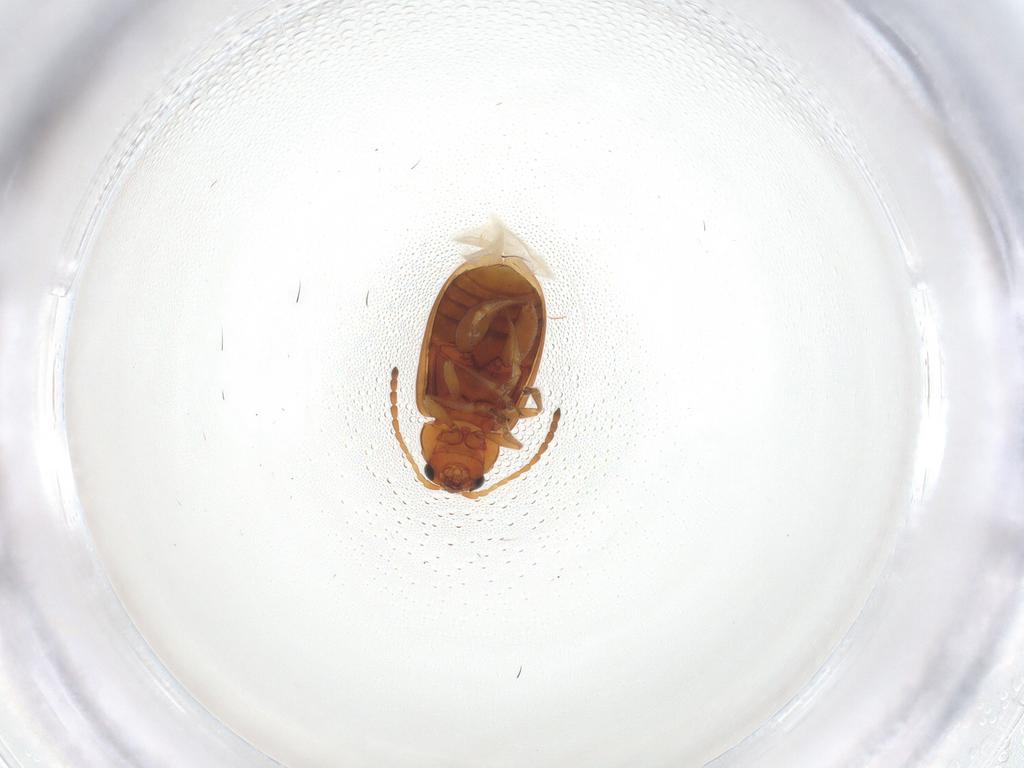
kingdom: Animalia
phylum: Arthropoda
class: Insecta
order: Coleoptera
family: Chrysomelidae
